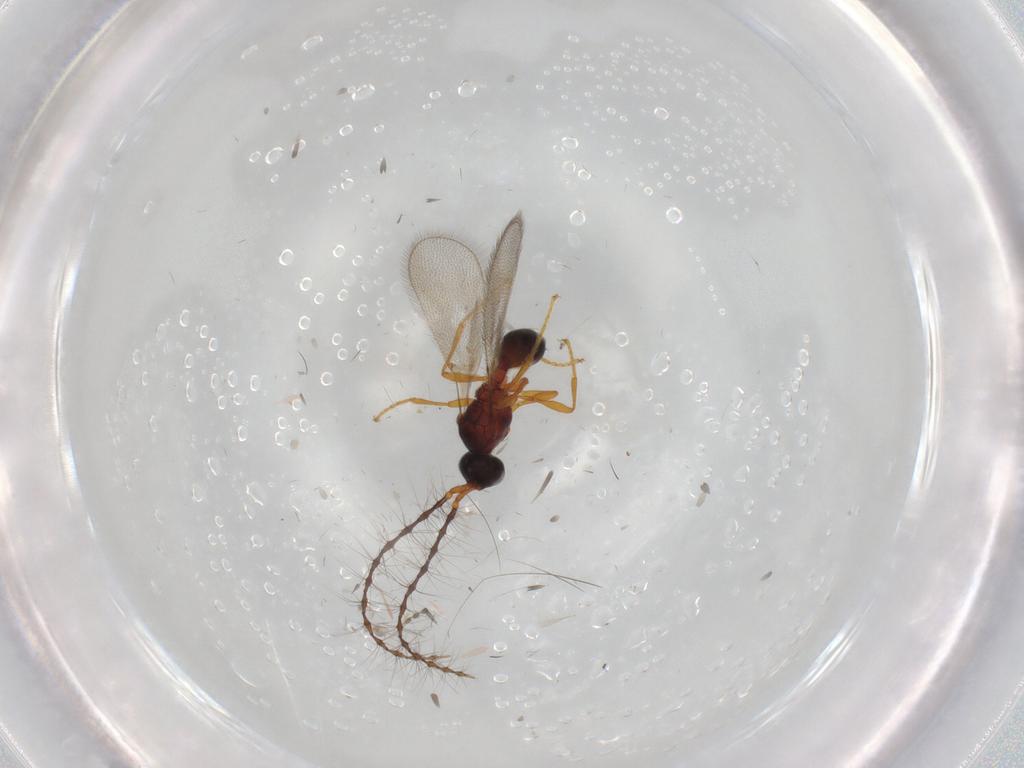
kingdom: Animalia
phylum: Arthropoda
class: Insecta
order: Hymenoptera
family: Diapriidae
